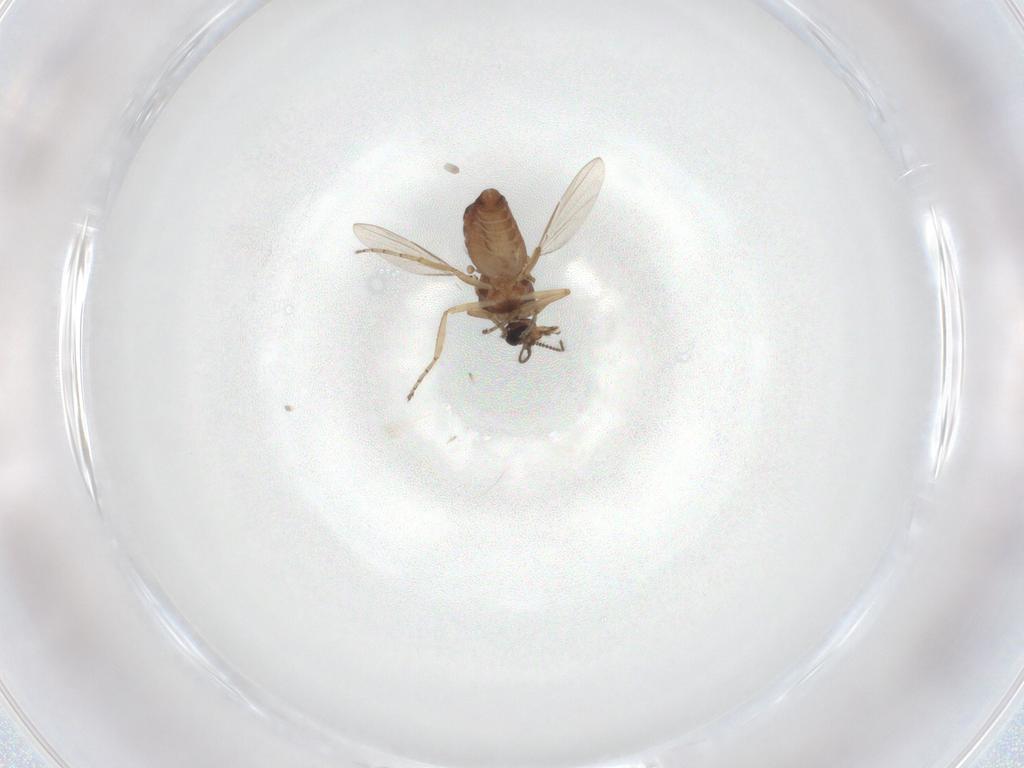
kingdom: Animalia
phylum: Arthropoda
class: Insecta
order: Diptera
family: Ceratopogonidae
